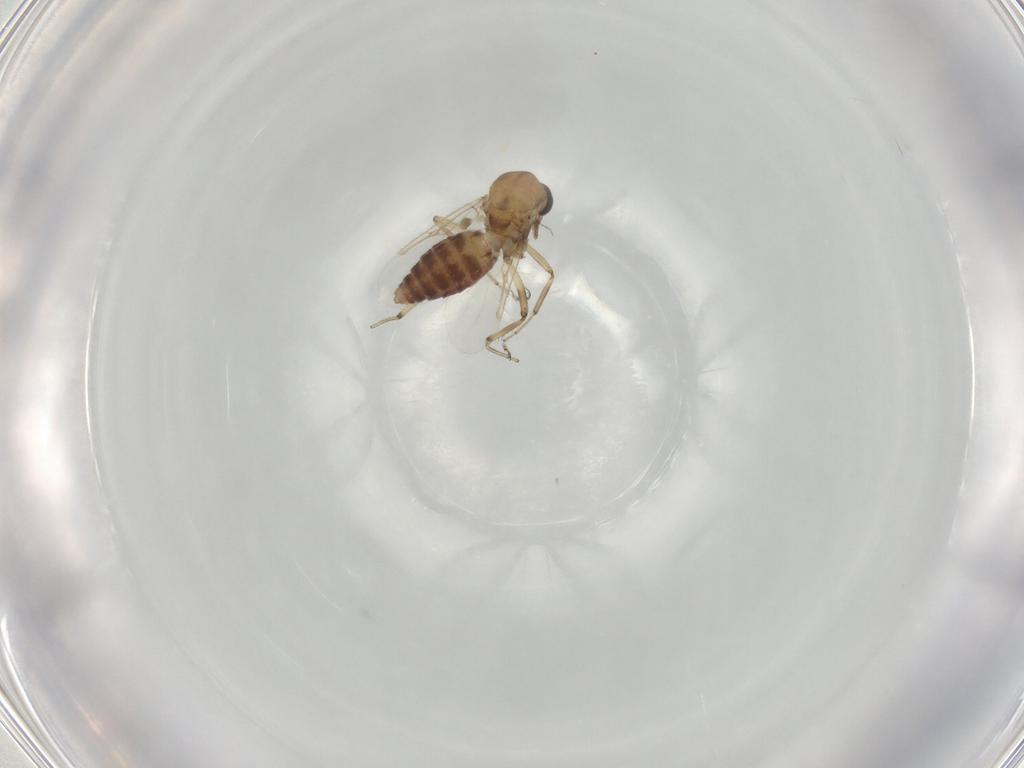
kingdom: Animalia
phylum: Arthropoda
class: Insecta
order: Diptera
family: Ceratopogonidae
